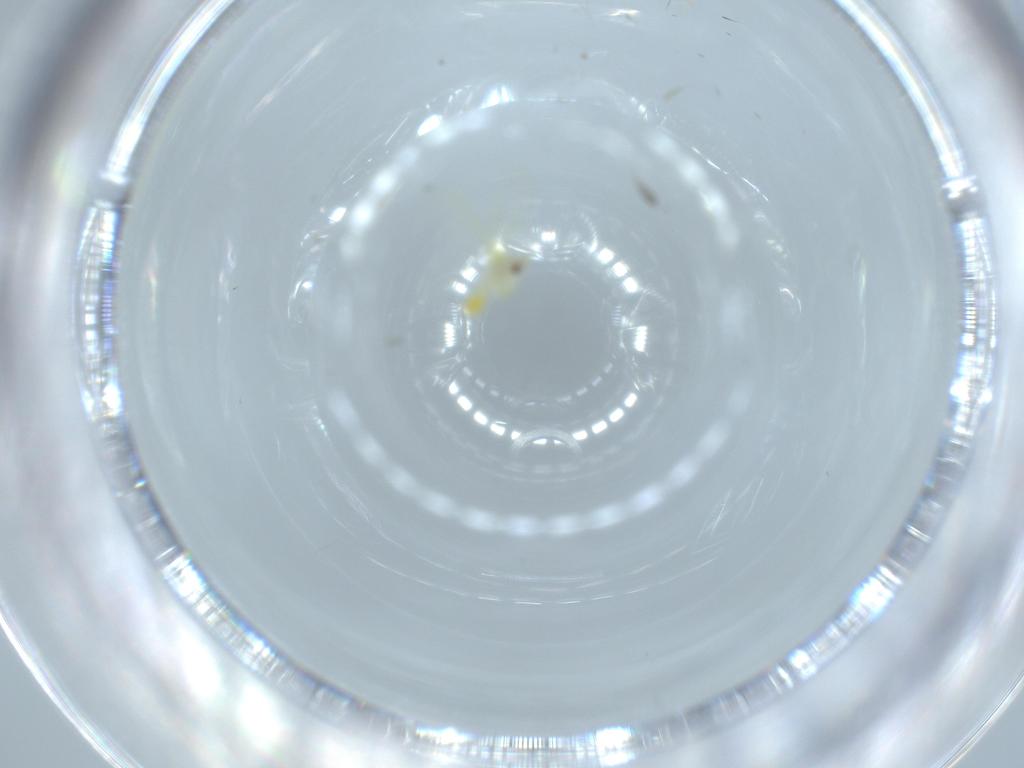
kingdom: Animalia
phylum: Arthropoda
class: Insecta
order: Hemiptera
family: Aleyrodidae
